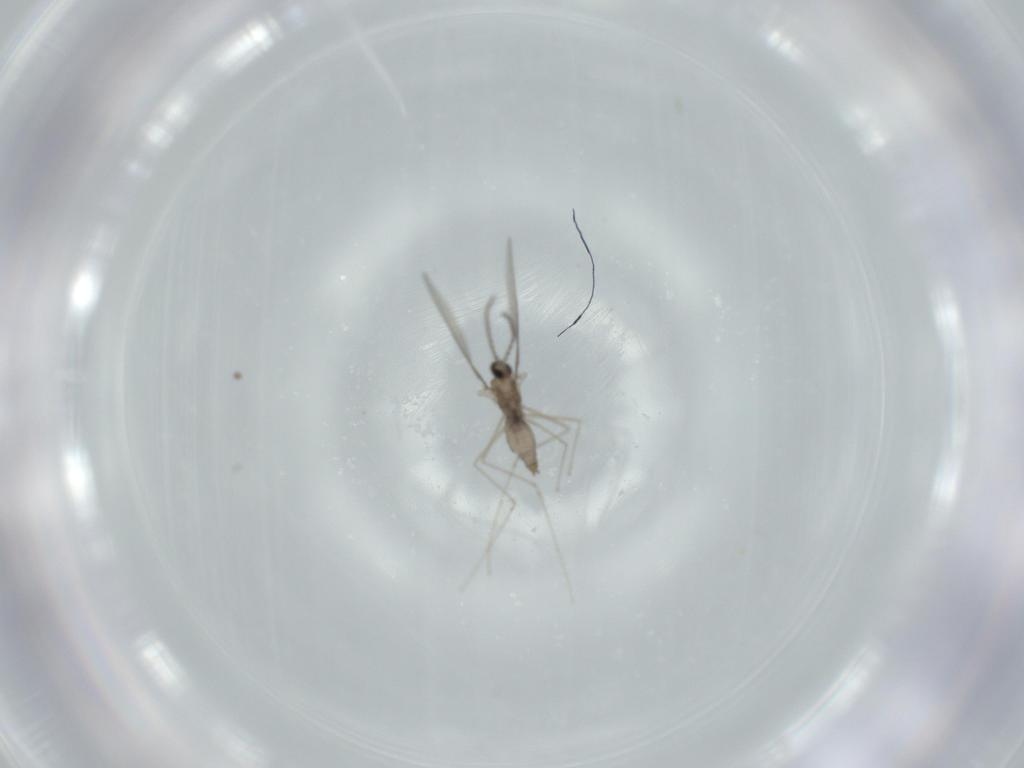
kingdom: Animalia
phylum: Arthropoda
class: Insecta
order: Diptera
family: Cecidomyiidae
